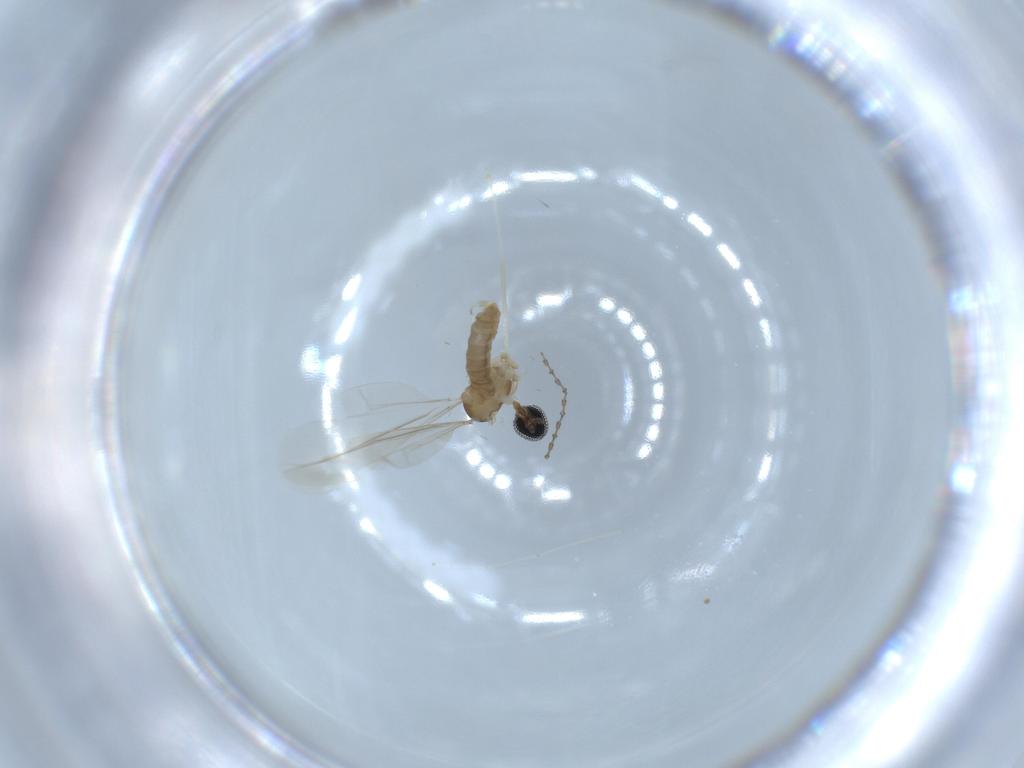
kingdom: Animalia
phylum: Arthropoda
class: Insecta
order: Diptera
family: Cecidomyiidae
